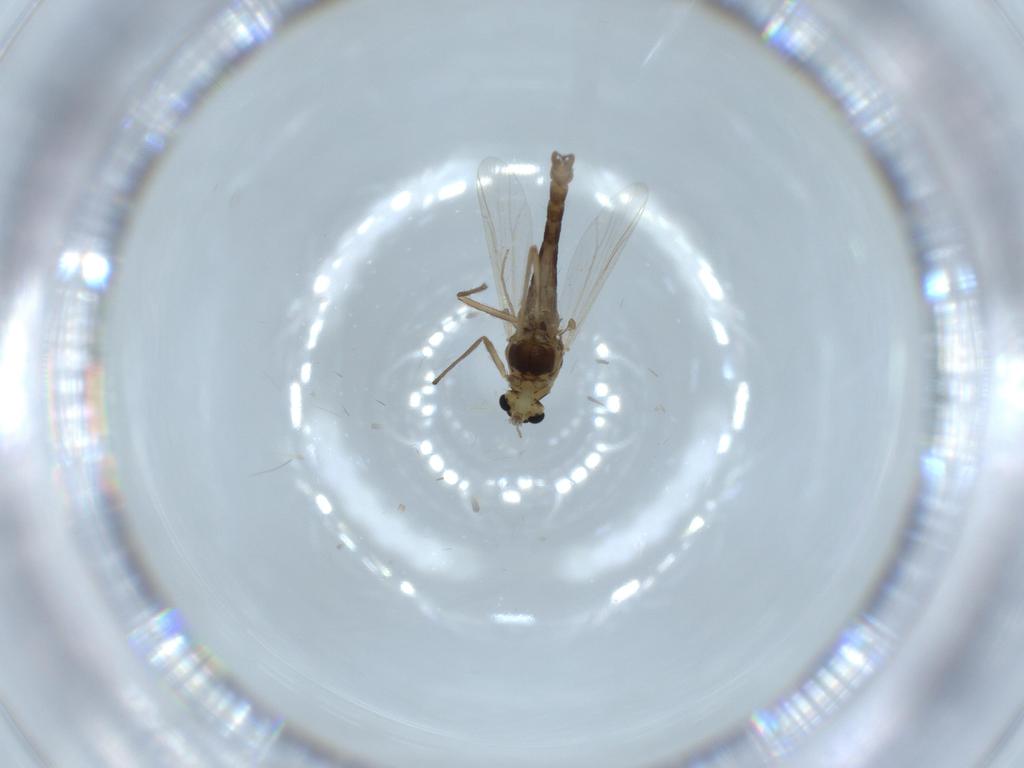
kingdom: Animalia
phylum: Arthropoda
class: Insecta
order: Diptera
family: Chironomidae
